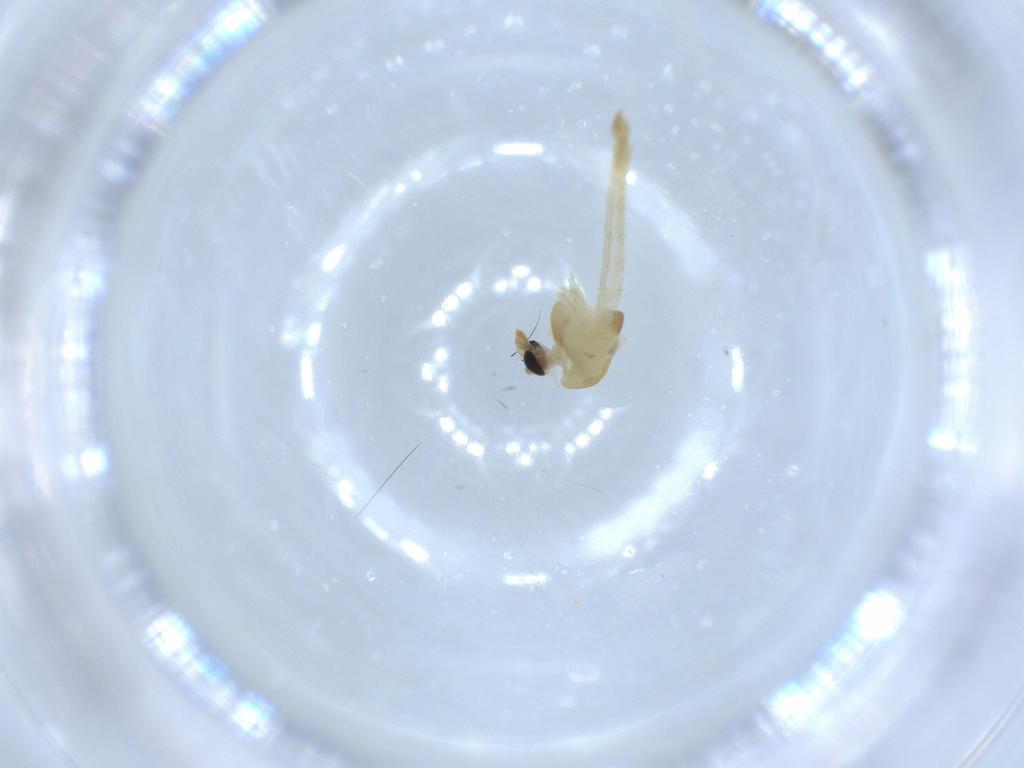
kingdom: Animalia
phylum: Arthropoda
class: Insecta
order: Diptera
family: Chironomidae
